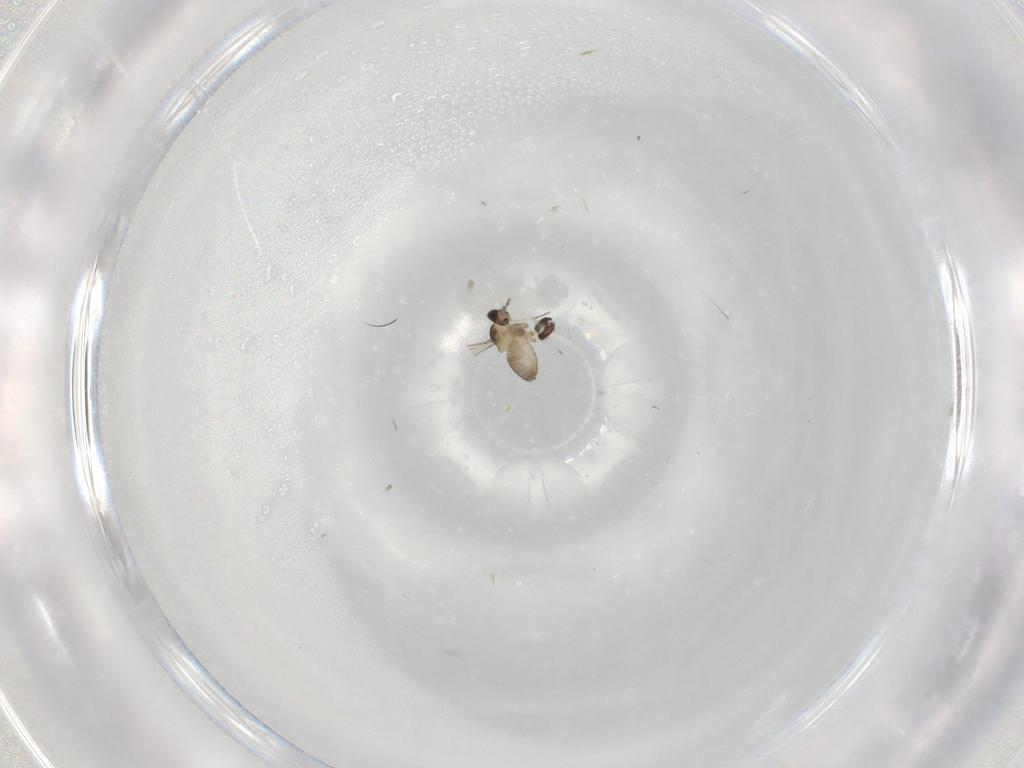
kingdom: Animalia
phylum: Arthropoda
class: Insecta
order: Diptera
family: Cecidomyiidae
